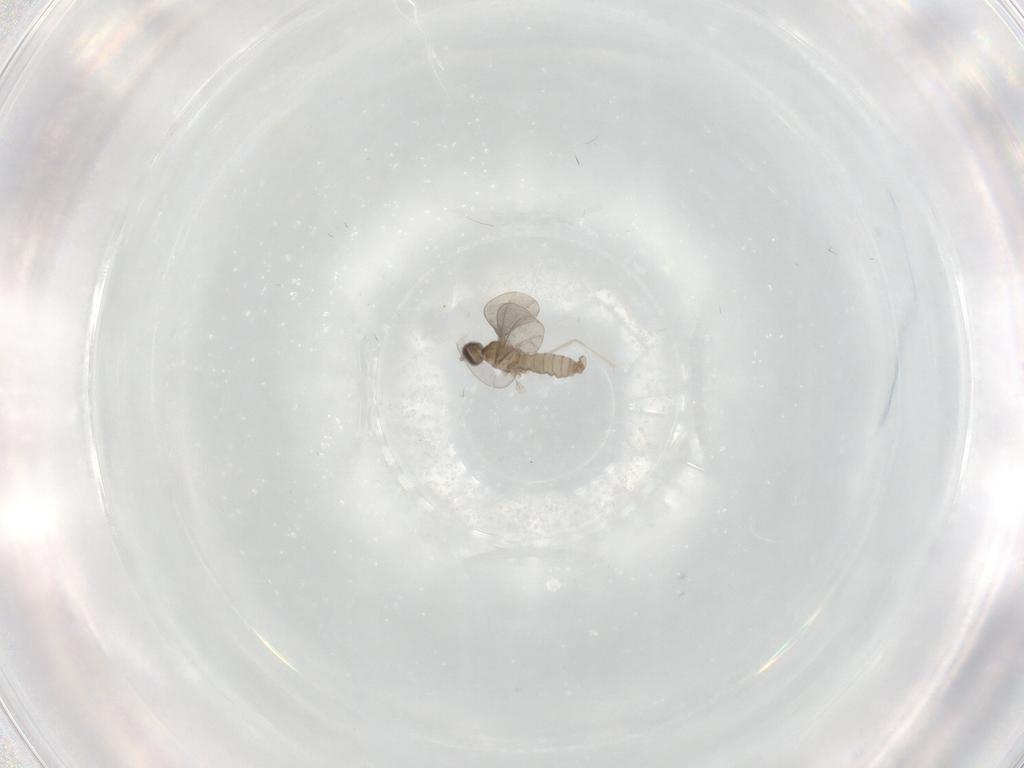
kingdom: Animalia
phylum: Arthropoda
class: Insecta
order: Diptera
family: Cecidomyiidae
